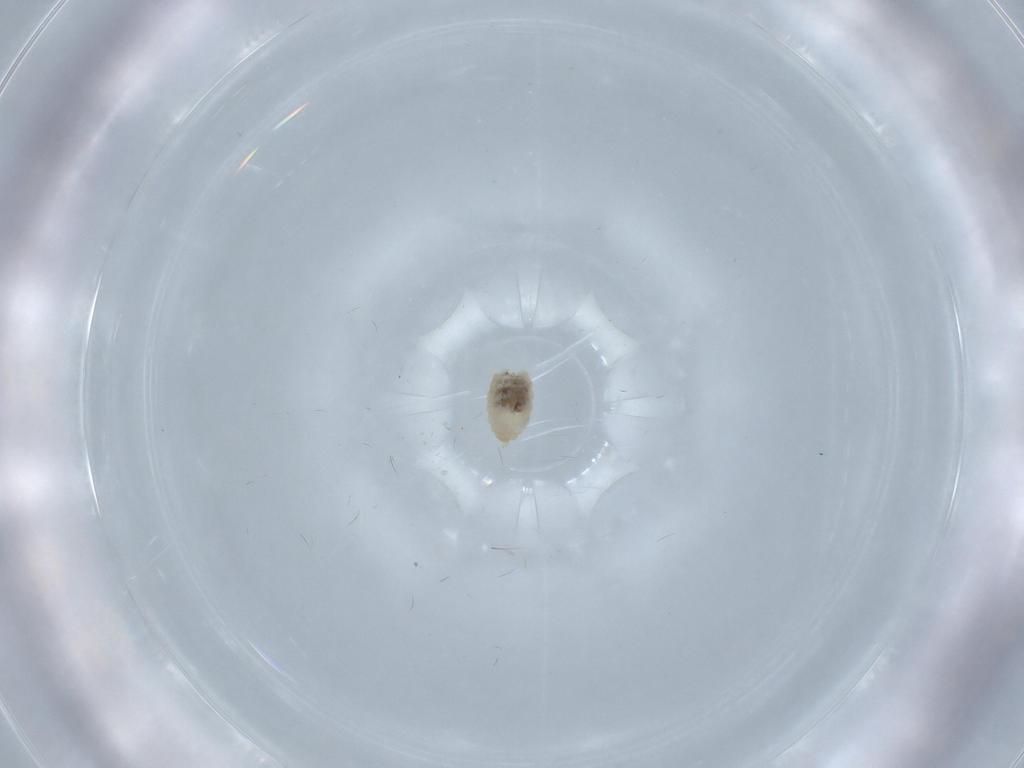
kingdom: Animalia
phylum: Arthropoda
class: Insecta
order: Diptera
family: Cecidomyiidae
